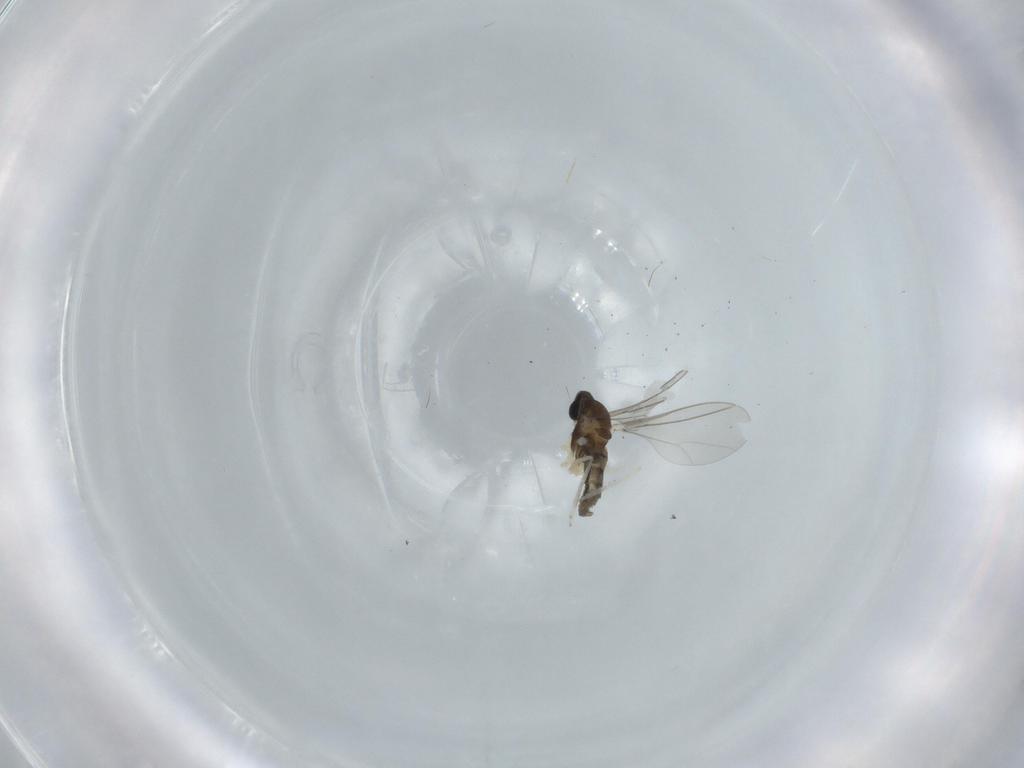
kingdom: Animalia
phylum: Arthropoda
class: Insecta
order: Diptera
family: Cecidomyiidae
